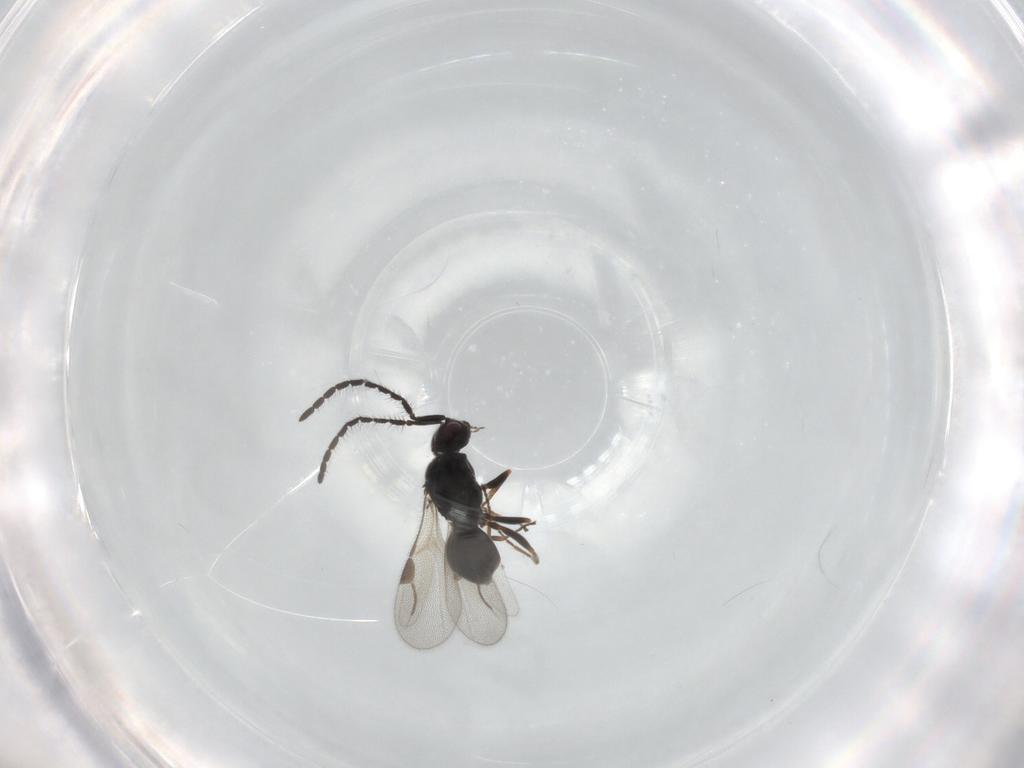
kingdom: Animalia
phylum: Arthropoda
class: Insecta
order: Hymenoptera
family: Megaspilidae
